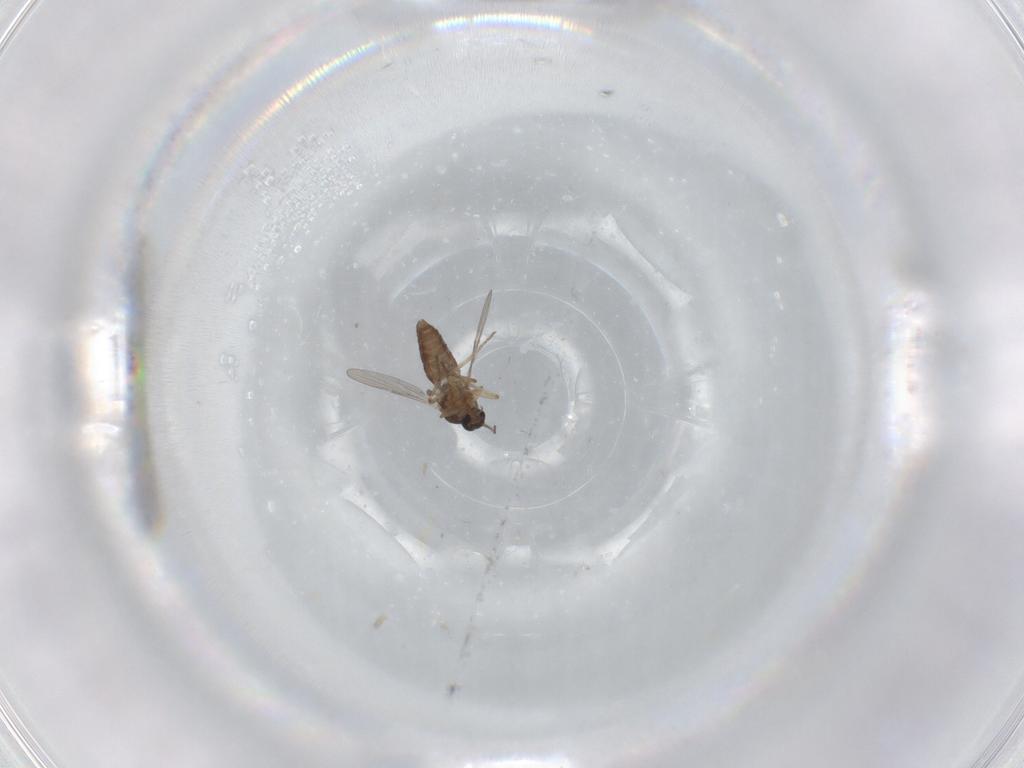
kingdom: Animalia
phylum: Arthropoda
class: Insecta
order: Diptera
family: Ceratopogonidae
